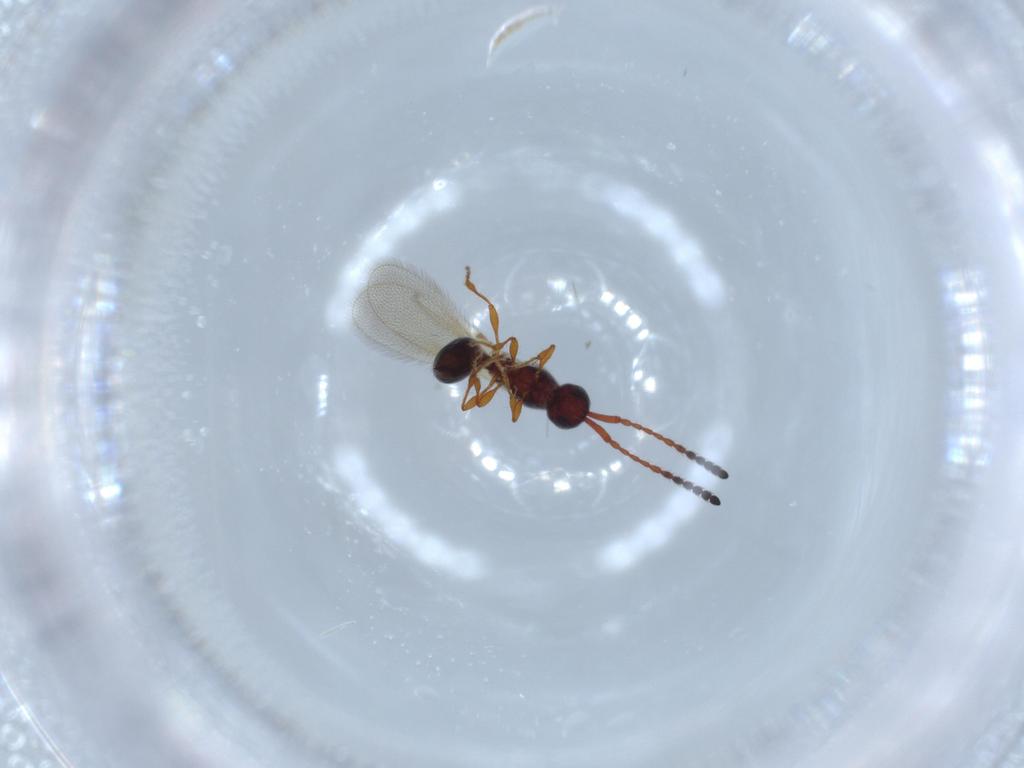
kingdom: Animalia
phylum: Arthropoda
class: Insecta
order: Hymenoptera
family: Diapriidae
